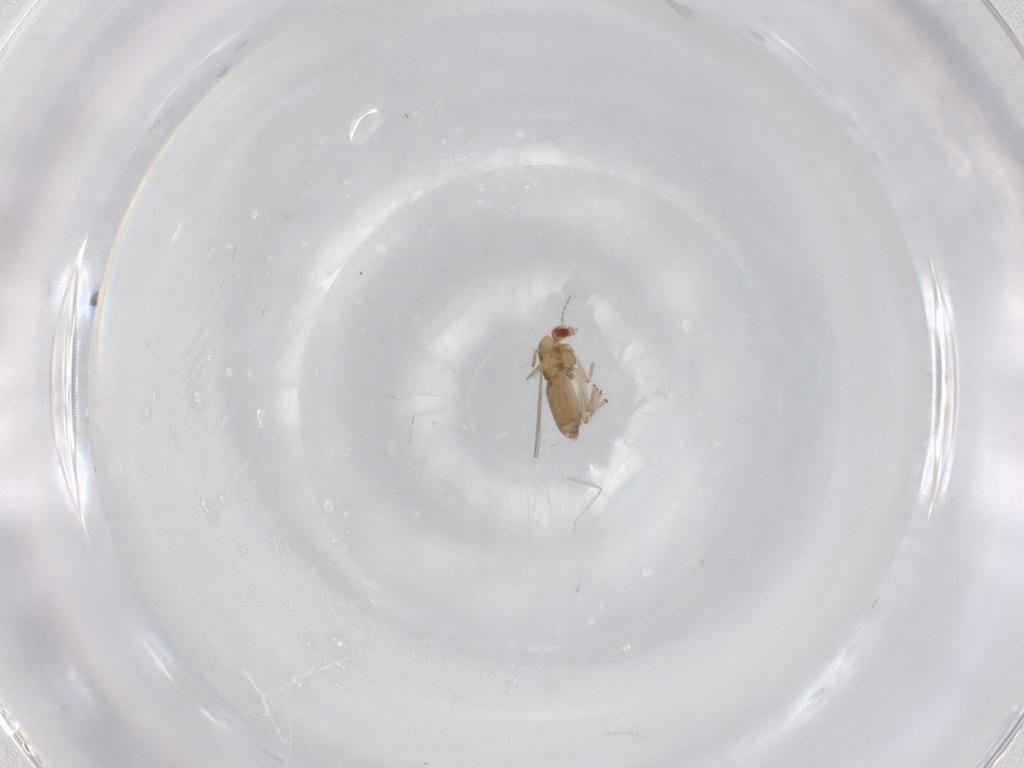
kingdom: Animalia
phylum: Arthropoda
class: Insecta
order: Diptera
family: Chironomidae
